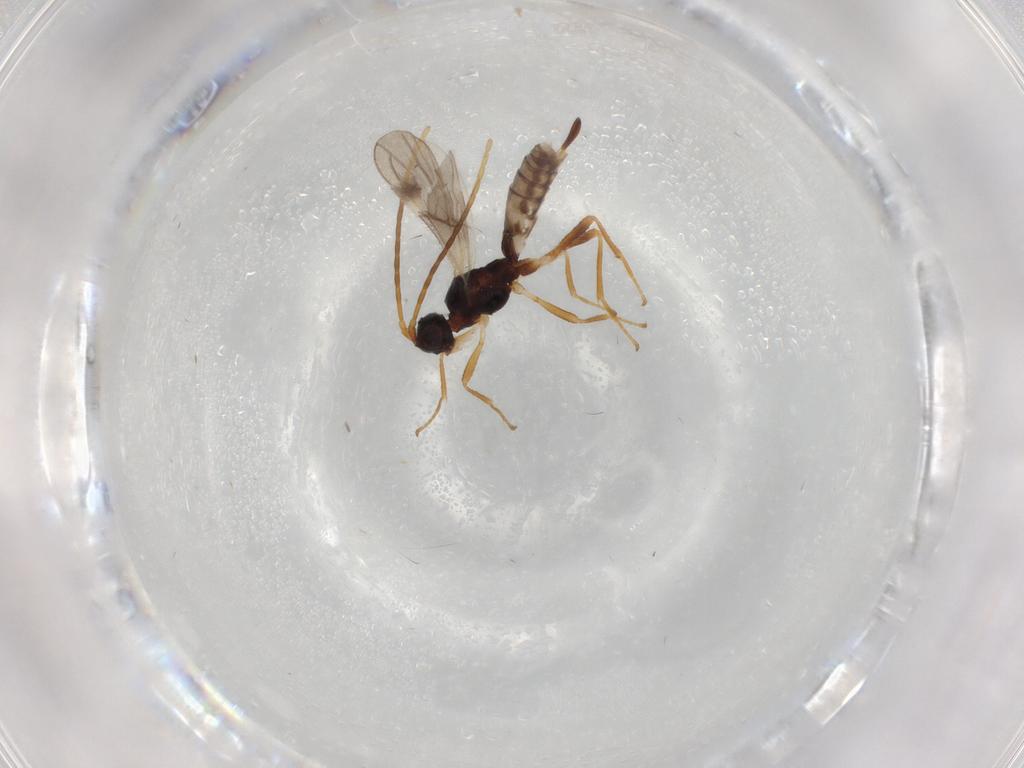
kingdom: Animalia
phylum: Arthropoda
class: Insecta
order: Hymenoptera
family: Braconidae
